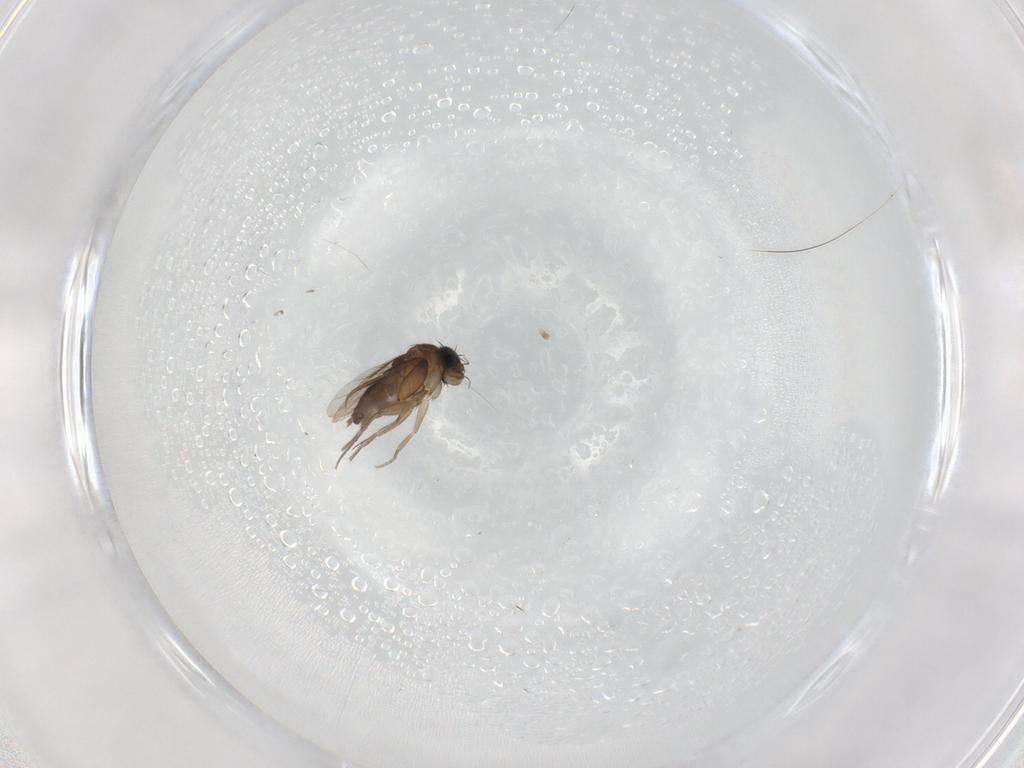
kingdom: Animalia
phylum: Arthropoda
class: Insecta
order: Diptera
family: Phoridae
